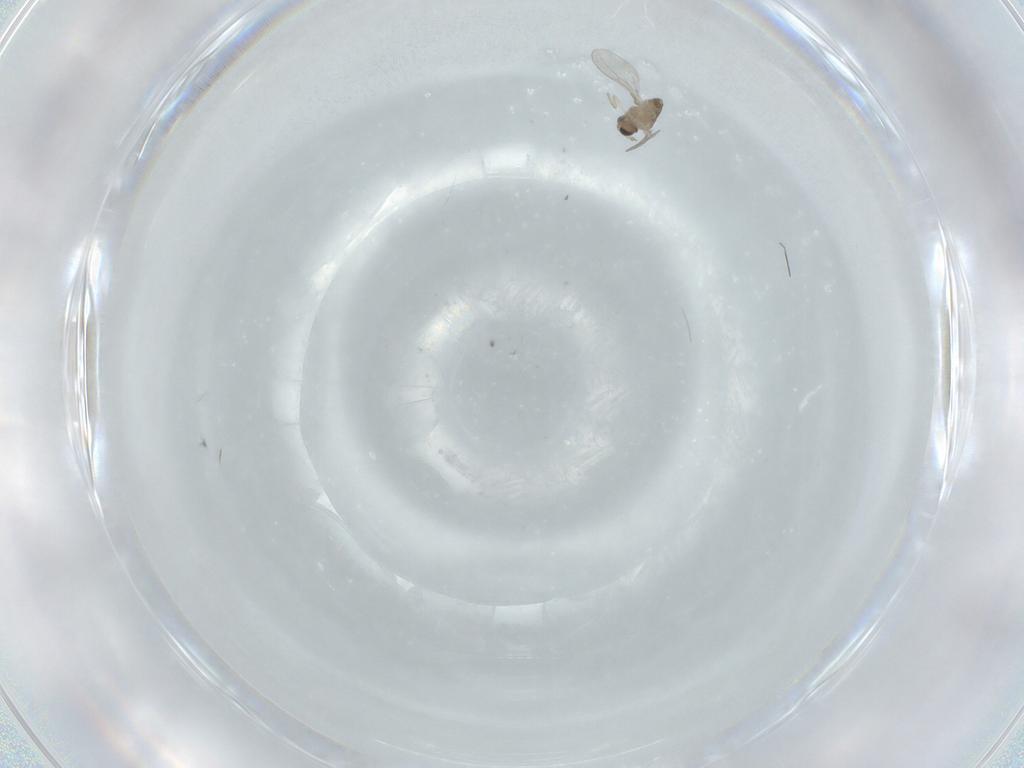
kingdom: Animalia
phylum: Arthropoda
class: Insecta
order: Diptera
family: Cecidomyiidae
